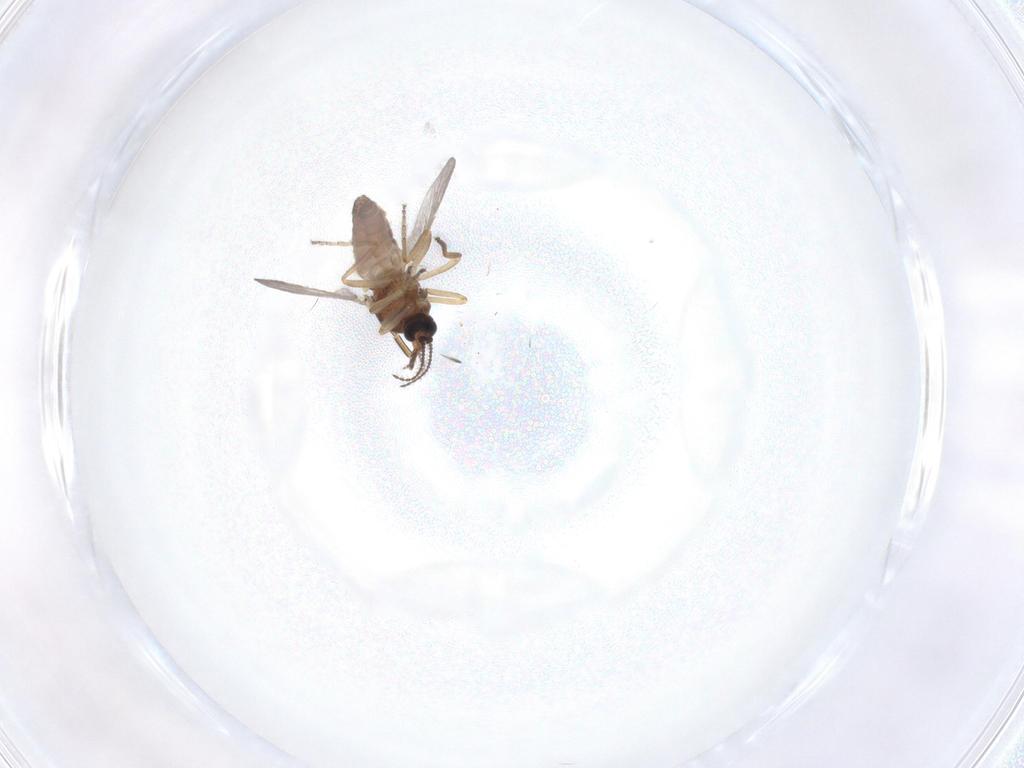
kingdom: Animalia
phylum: Arthropoda
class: Insecta
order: Diptera
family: Ceratopogonidae
